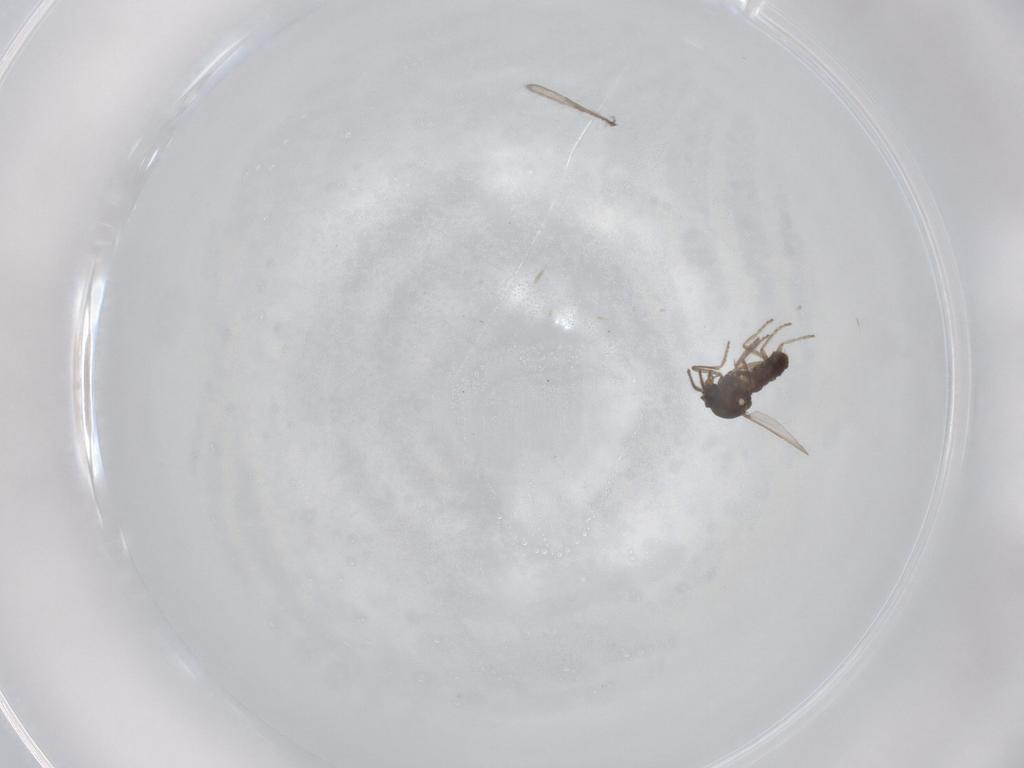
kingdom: Animalia
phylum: Arthropoda
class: Insecta
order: Diptera
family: Ceratopogonidae
